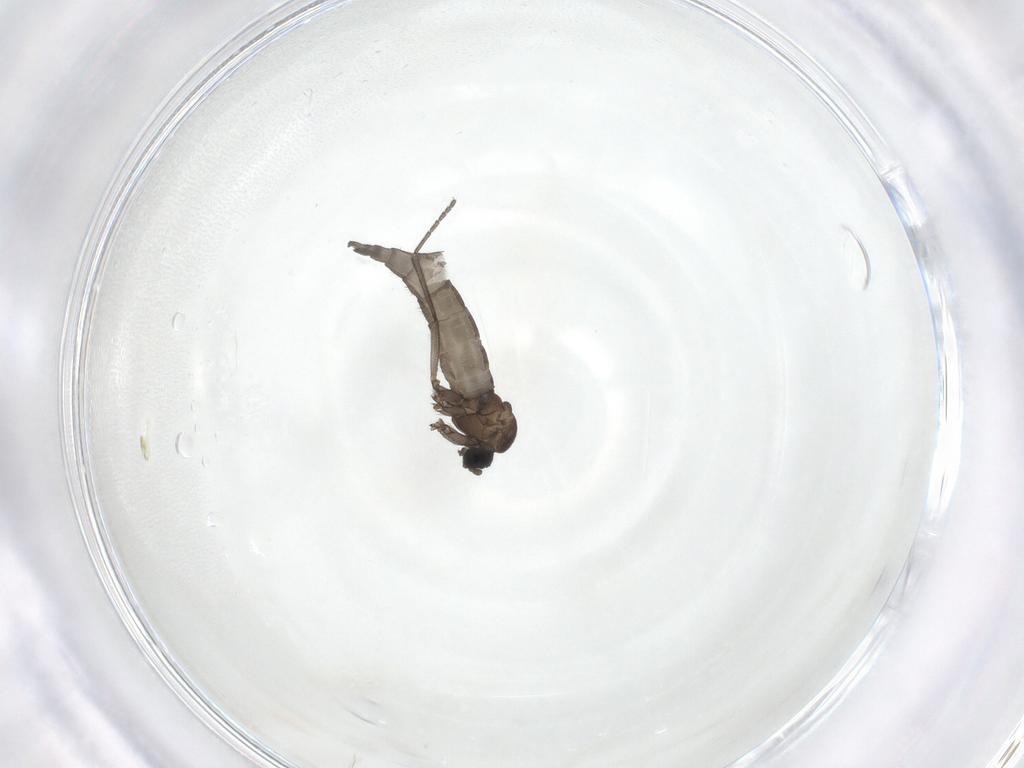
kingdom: Animalia
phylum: Arthropoda
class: Insecta
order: Diptera
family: Sciaridae
